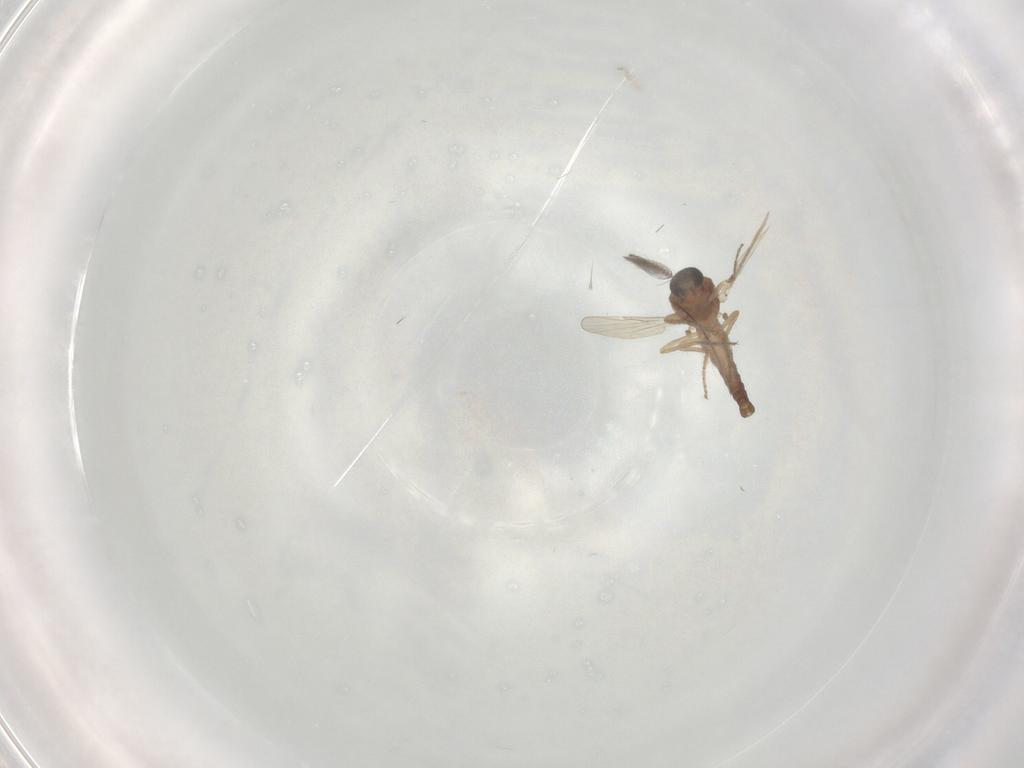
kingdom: Animalia
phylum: Arthropoda
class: Insecta
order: Diptera
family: Ceratopogonidae
